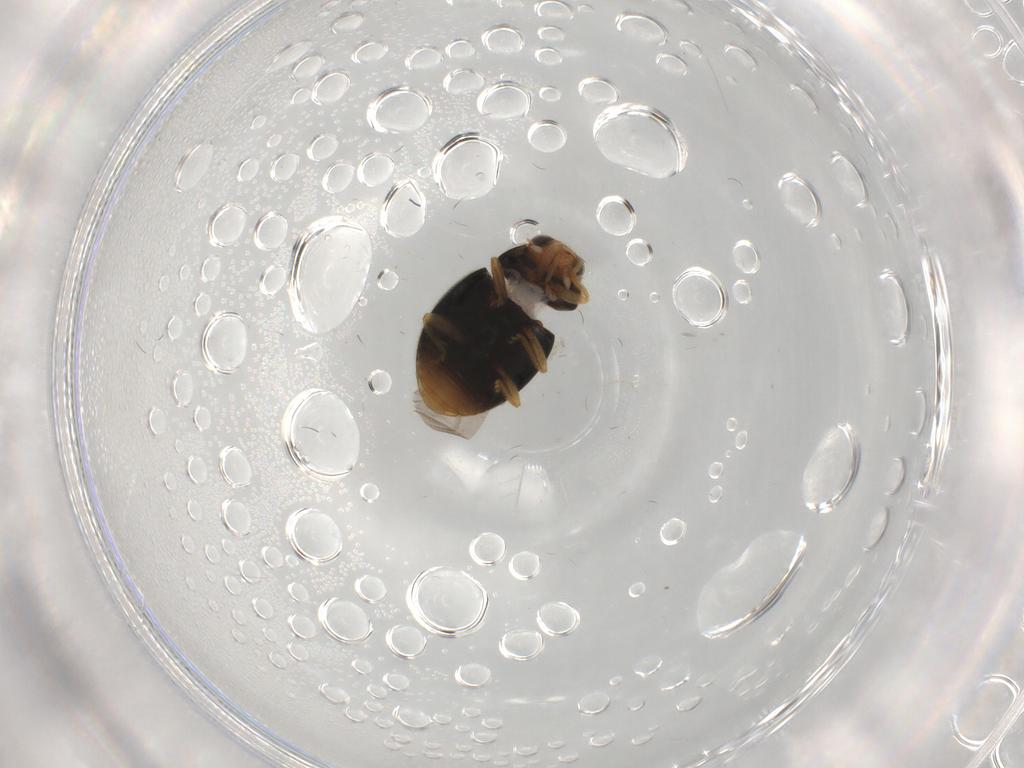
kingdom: Animalia
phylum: Arthropoda
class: Insecta
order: Coleoptera
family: Coccinellidae
